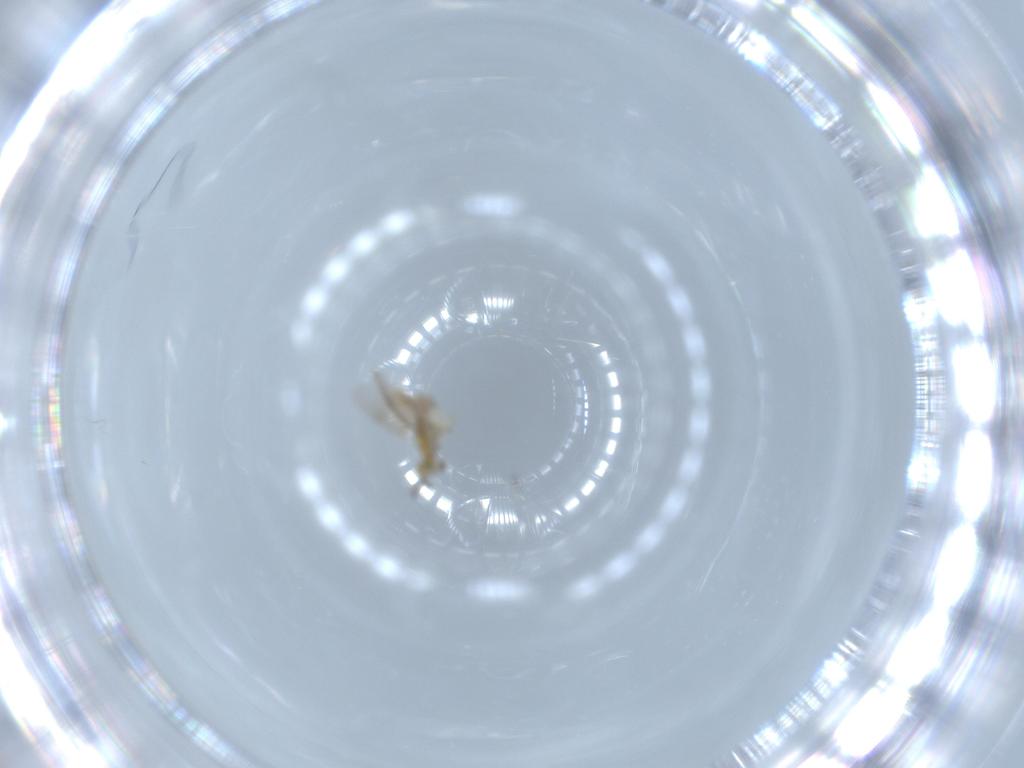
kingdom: Animalia
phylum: Arthropoda
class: Insecta
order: Hymenoptera
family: Aphelinidae
